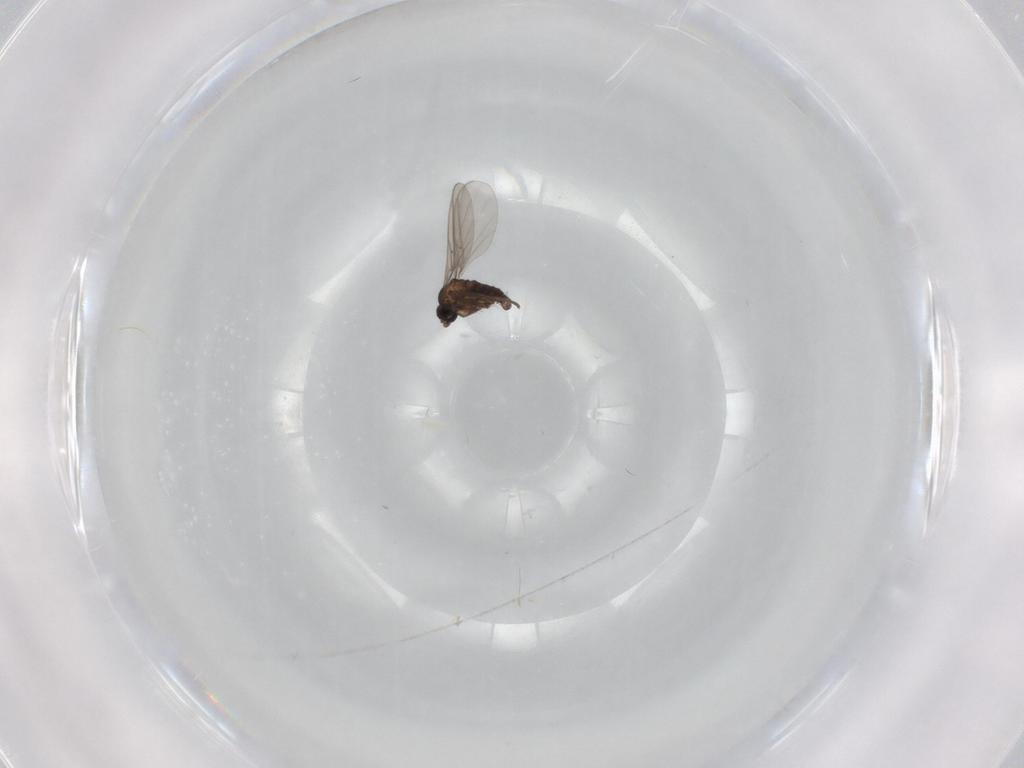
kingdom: Animalia
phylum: Arthropoda
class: Insecta
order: Diptera
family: Sciaridae
